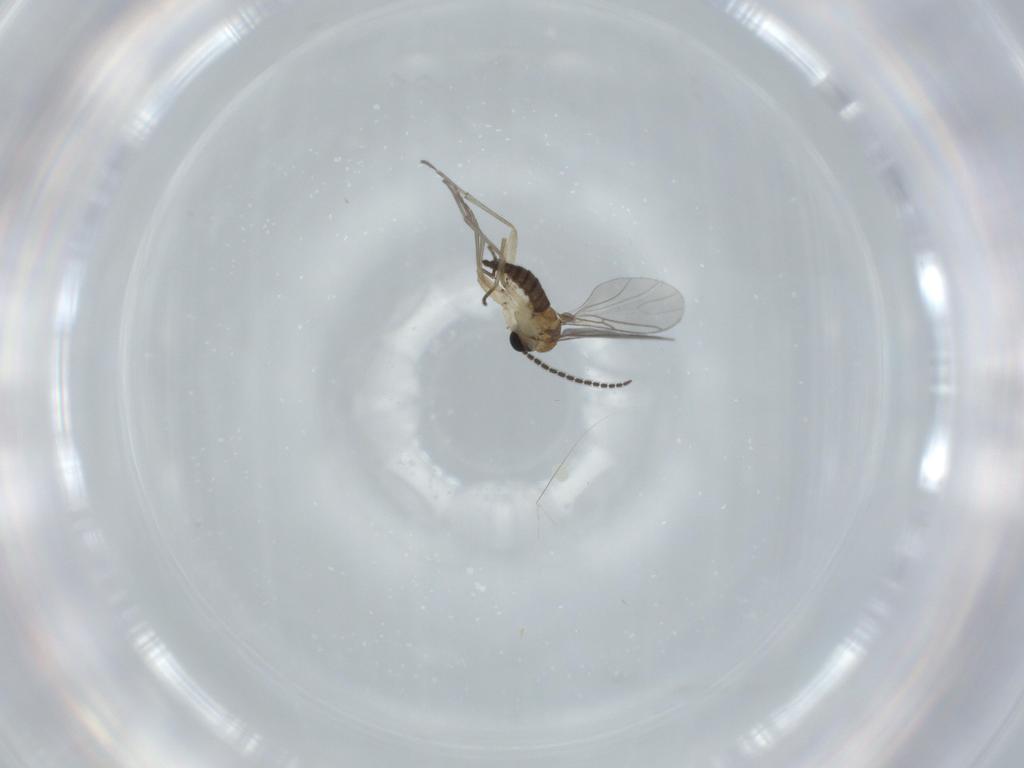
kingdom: Animalia
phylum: Arthropoda
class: Insecta
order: Diptera
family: Sciaridae
